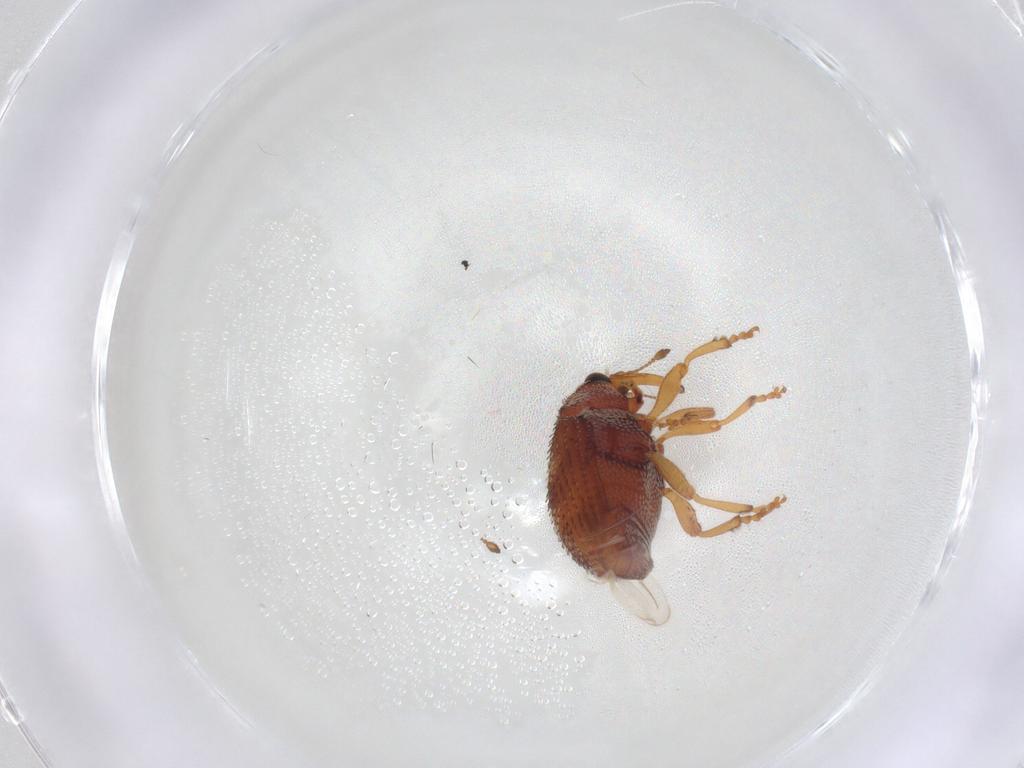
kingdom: Animalia
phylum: Arthropoda
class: Insecta
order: Coleoptera
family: Curculionidae
